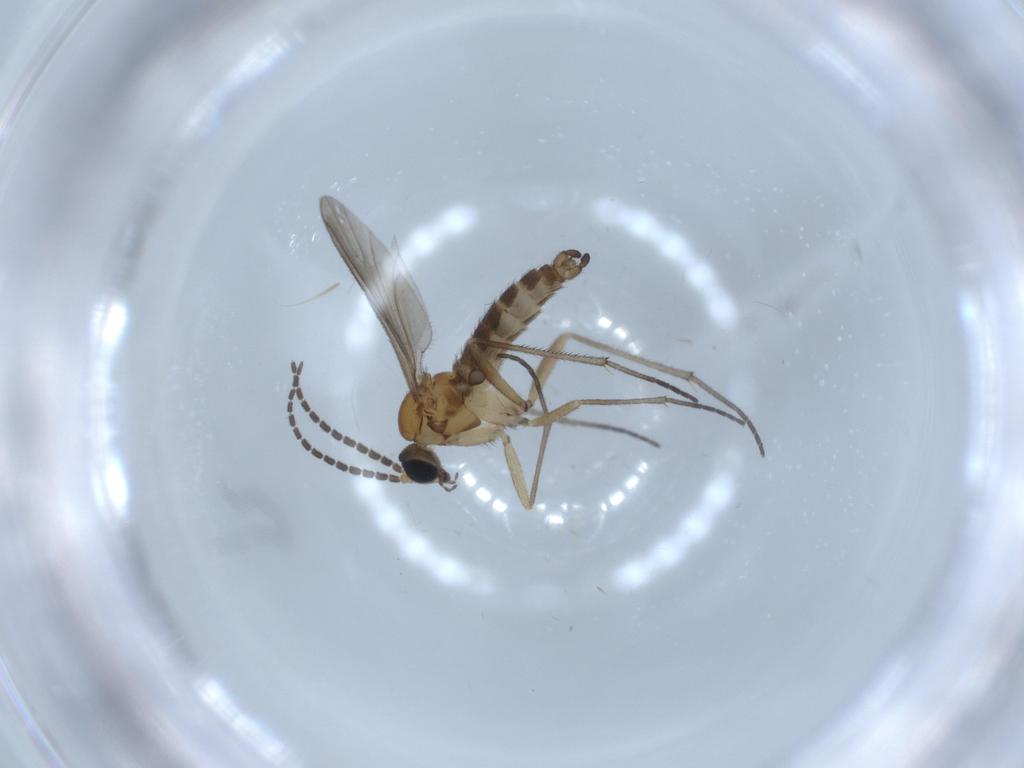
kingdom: Animalia
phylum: Arthropoda
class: Insecta
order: Diptera
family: Sciaridae
